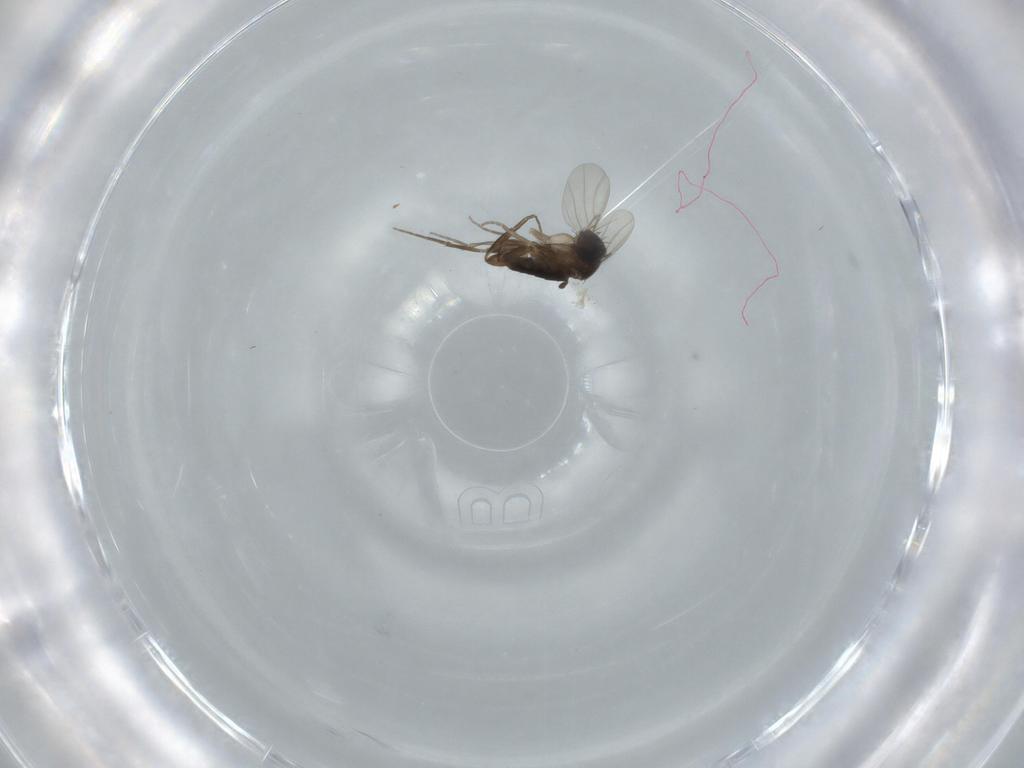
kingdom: Animalia
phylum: Arthropoda
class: Insecta
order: Diptera
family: Phoridae
